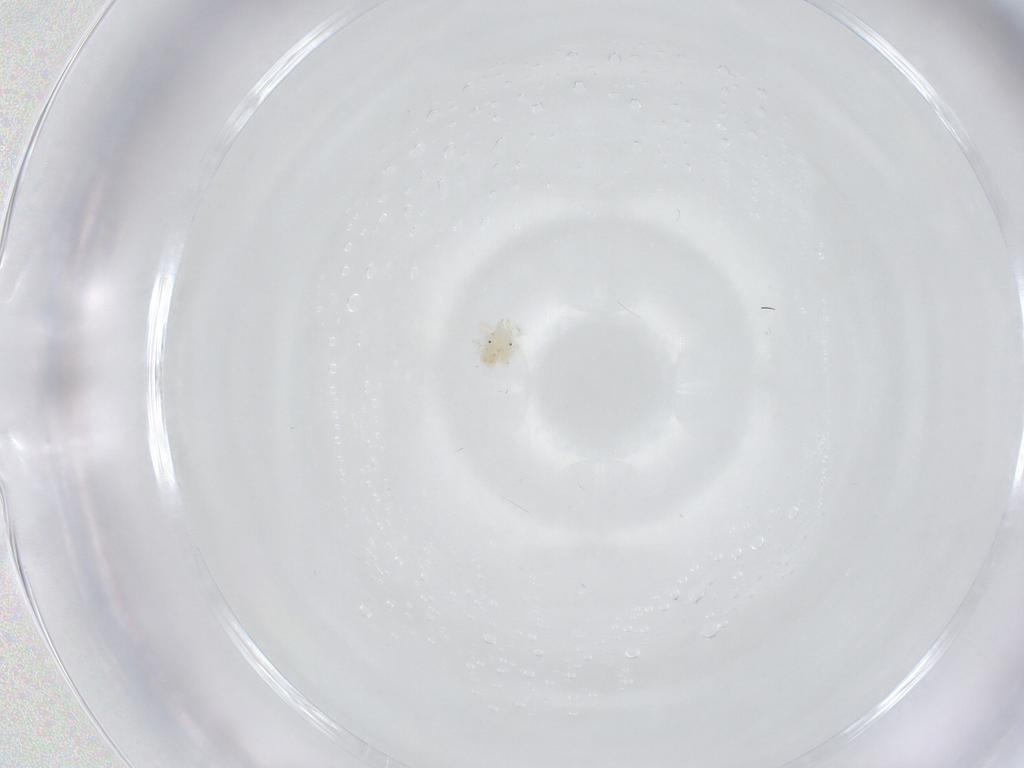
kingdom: Animalia
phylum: Arthropoda
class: Arachnida
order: Trombidiformes
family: Anystidae
